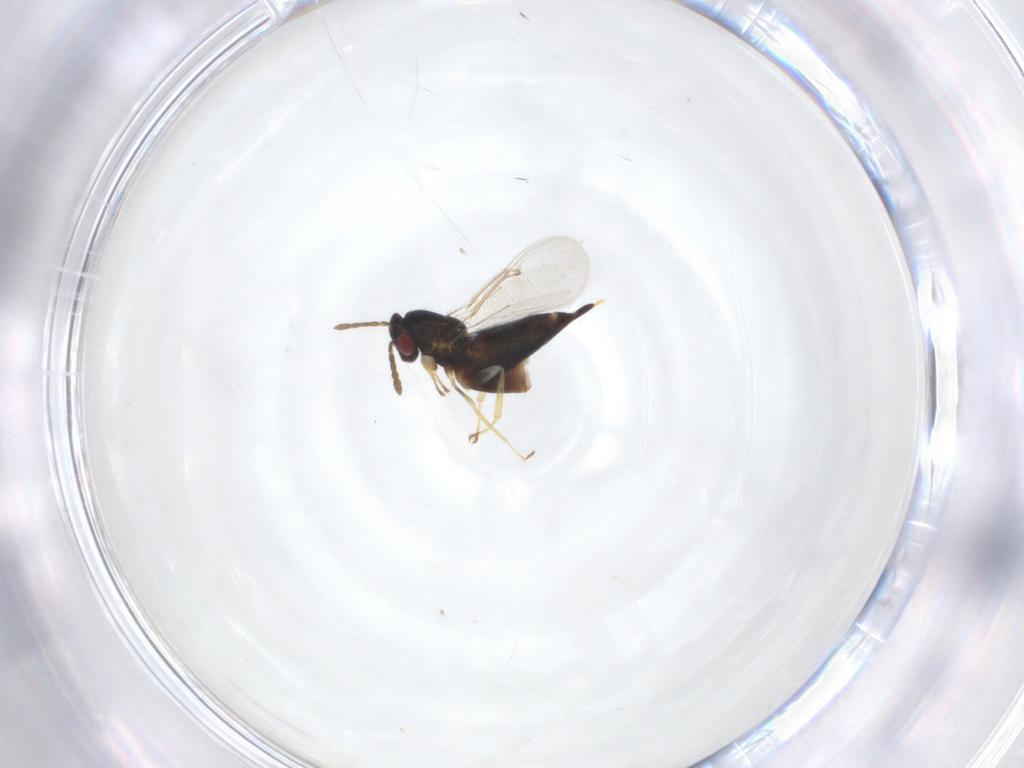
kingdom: Animalia
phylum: Arthropoda
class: Insecta
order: Hymenoptera
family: Eulophidae
